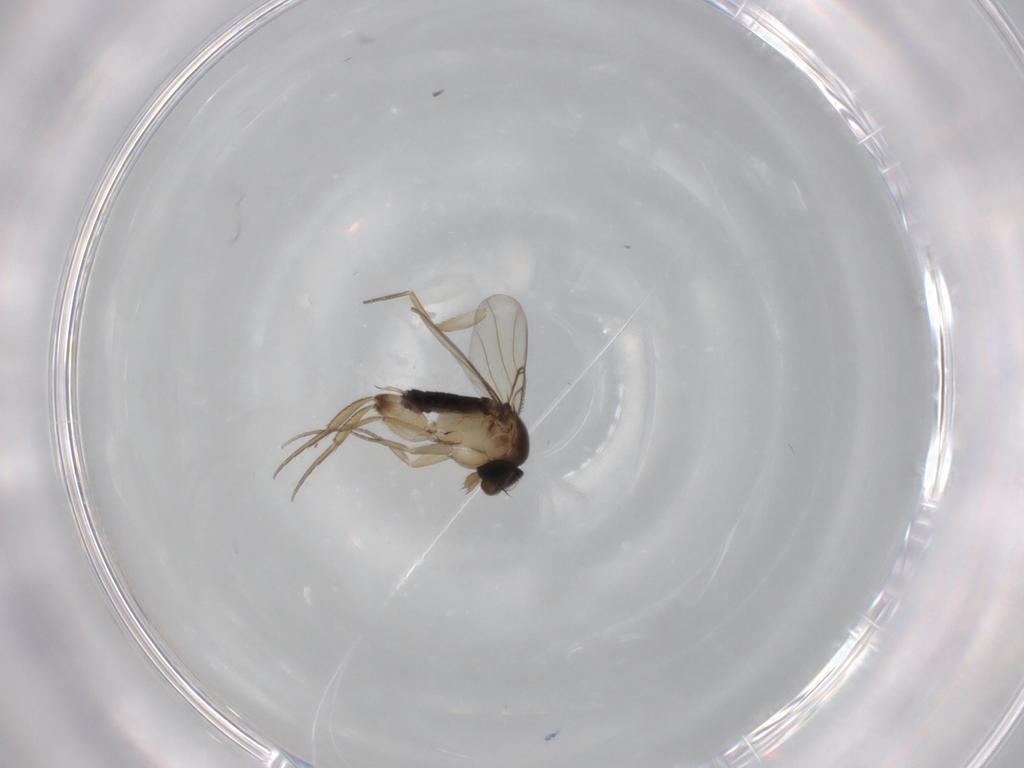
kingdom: Animalia
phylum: Arthropoda
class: Insecta
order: Diptera
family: Phoridae
